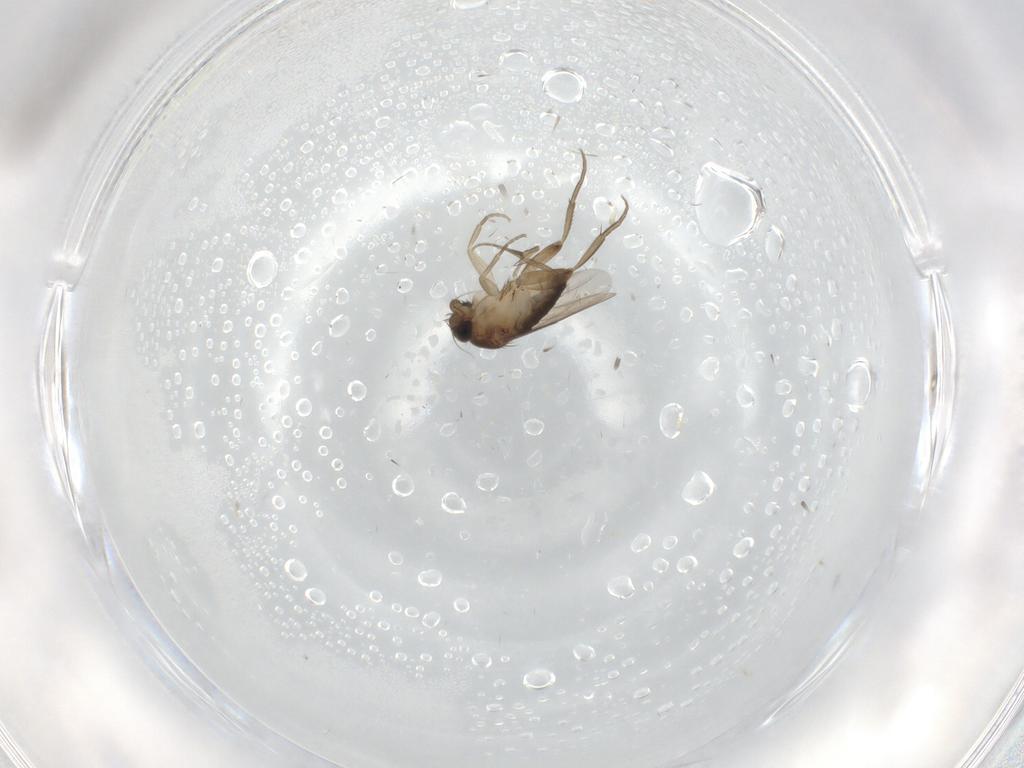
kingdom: Animalia
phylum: Arthropoda
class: Insecta
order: Diptera
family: Phoridae
